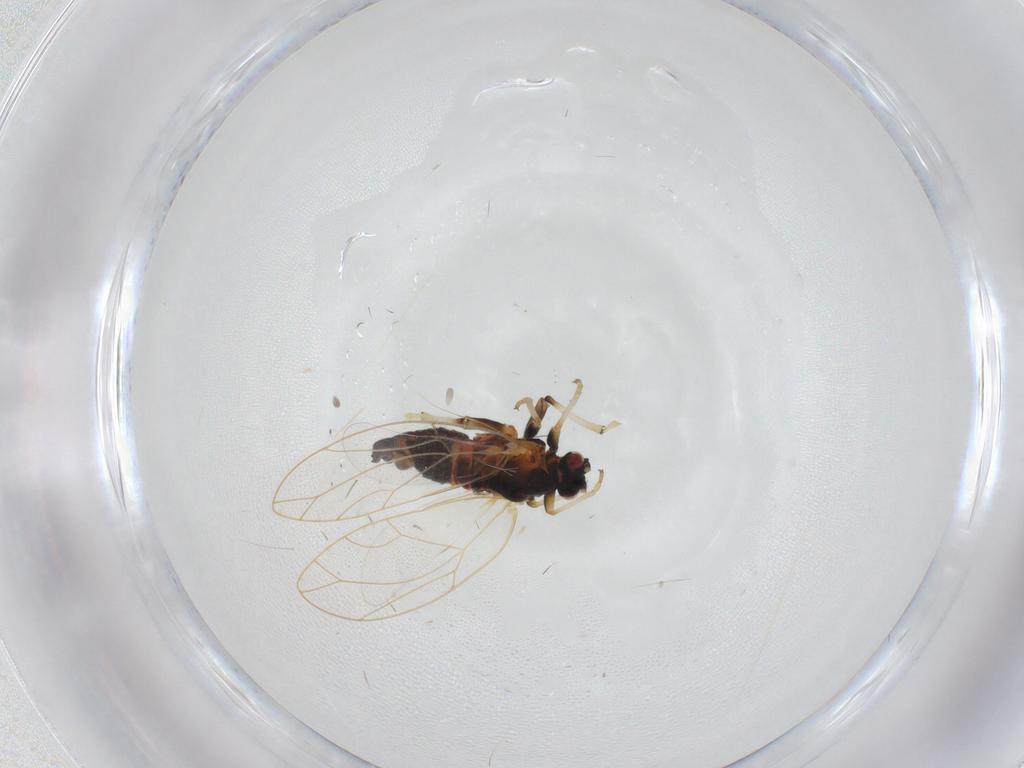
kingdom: Animalia
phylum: Arthropoda
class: Insecta
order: Hemiptera
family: Triozidae
